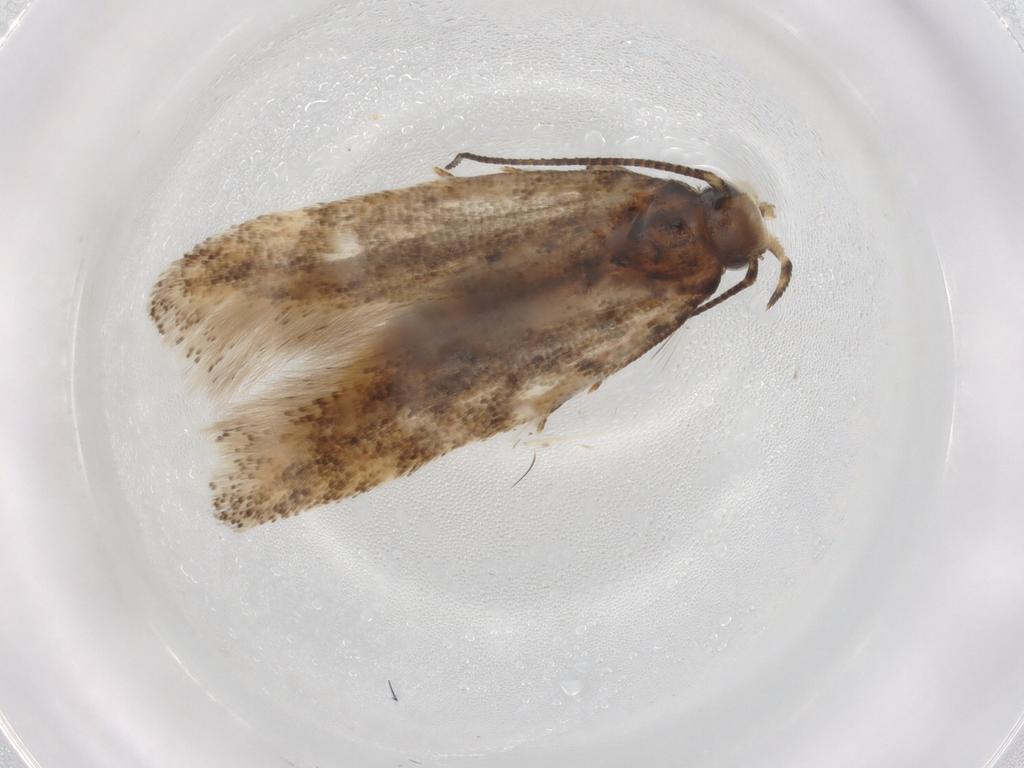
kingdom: Animalia
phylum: Arthropoda
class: Insecta
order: Lepidoptera
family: Gelechiidae
